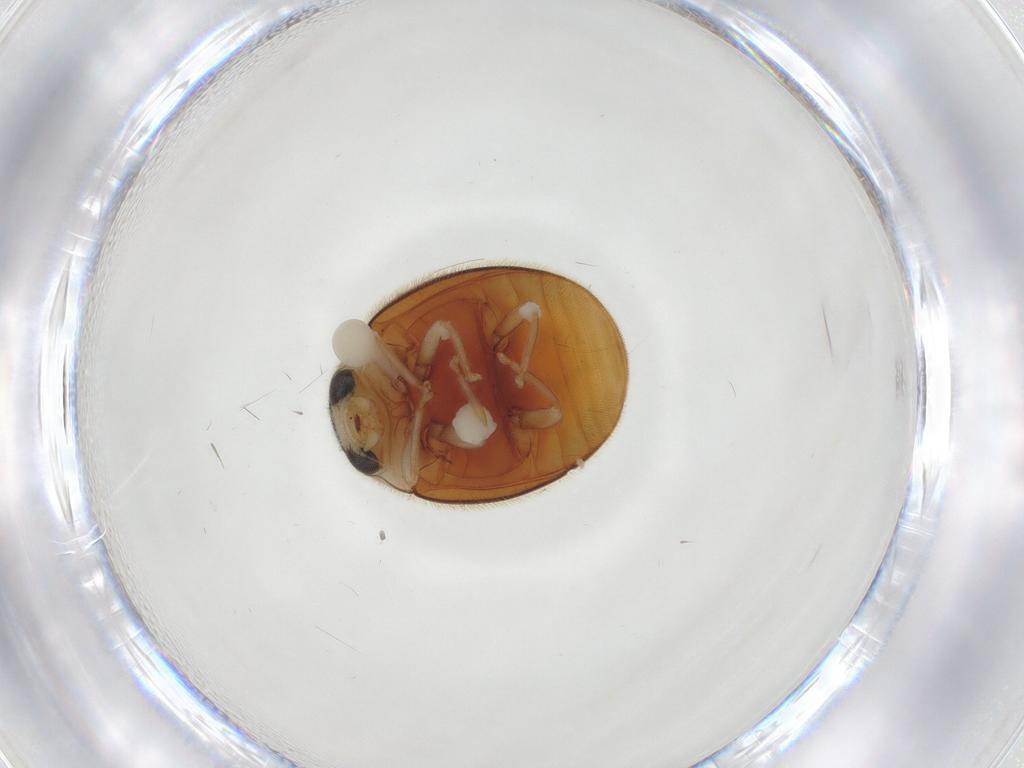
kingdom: Animalia
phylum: Arthropoda
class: Insecta
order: Coleoptera
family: Coccinellidae
